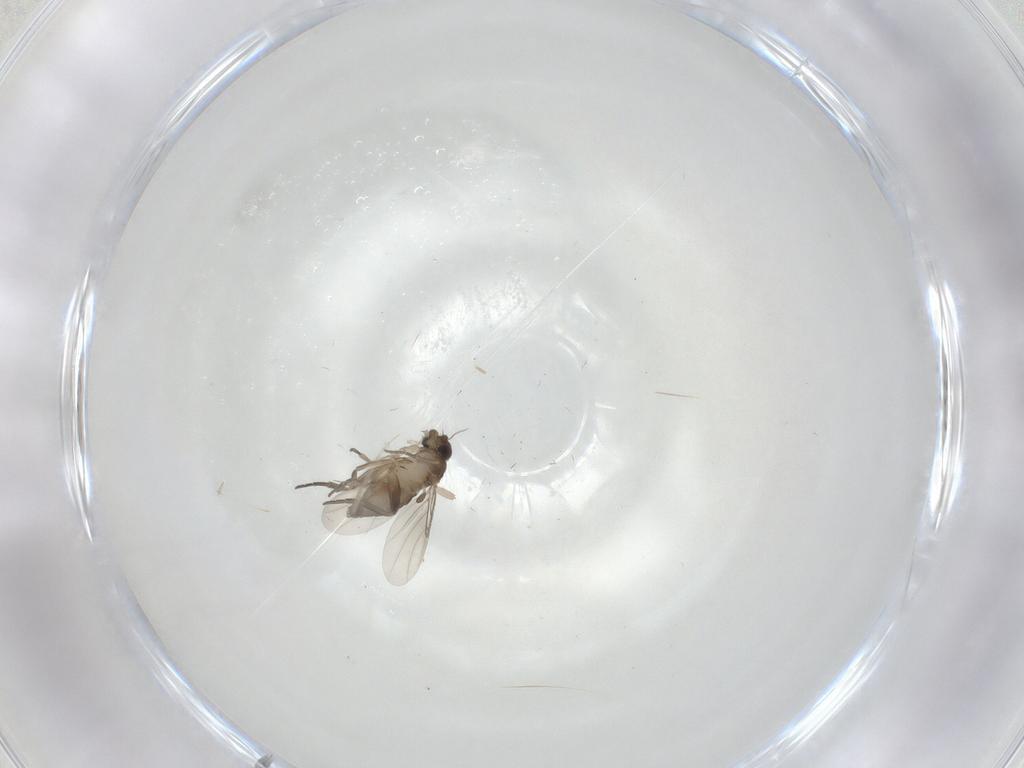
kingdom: Animalia
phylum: Arthropoda
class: Insecta
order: Diptera
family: Phoridae
